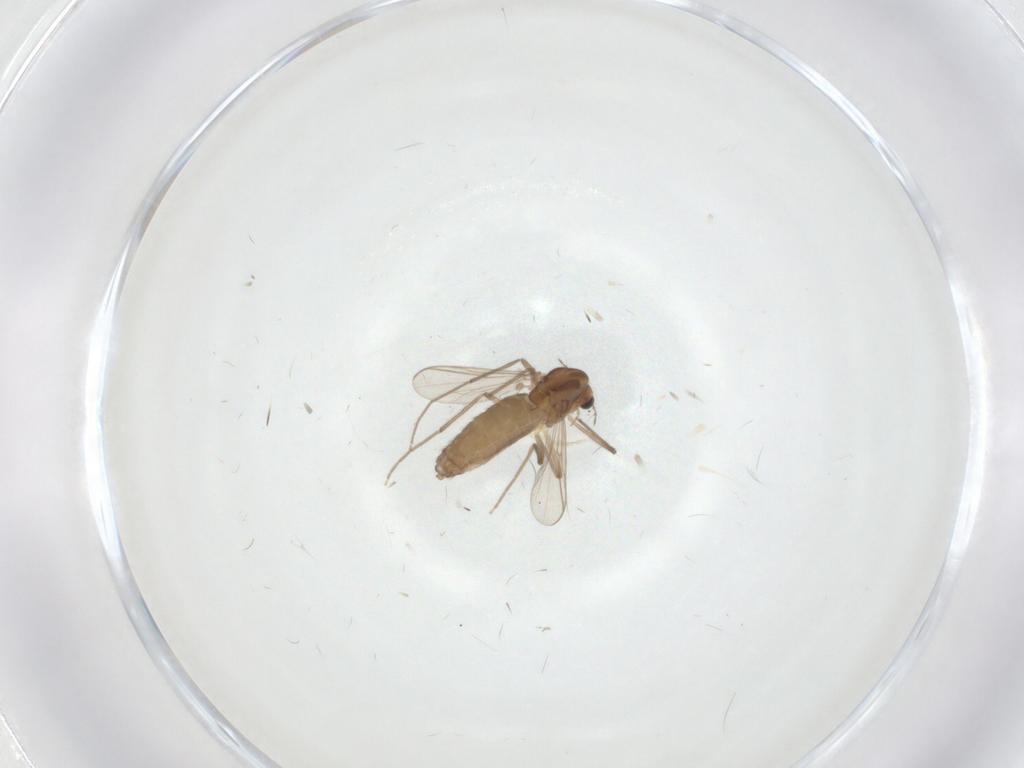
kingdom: Animalia
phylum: Arthropoda
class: Insecta
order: Diptera
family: Chironomidae
